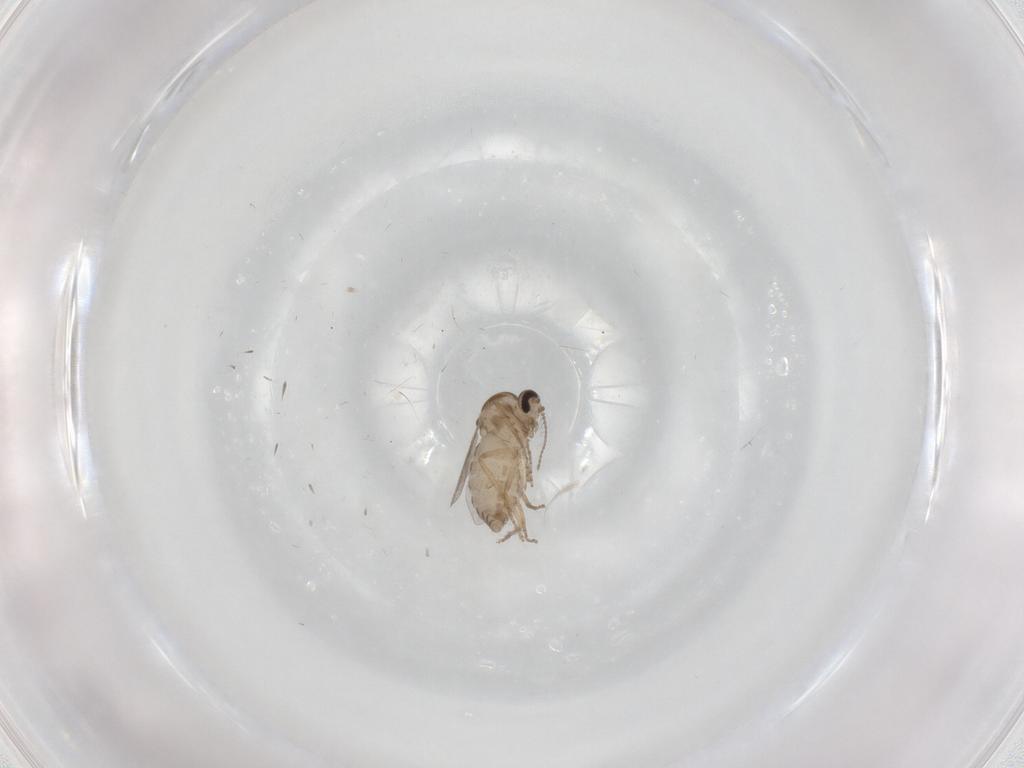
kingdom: Animalia
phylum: Arthropoda
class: Insecta
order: Diptera
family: Ceratopogonidae
